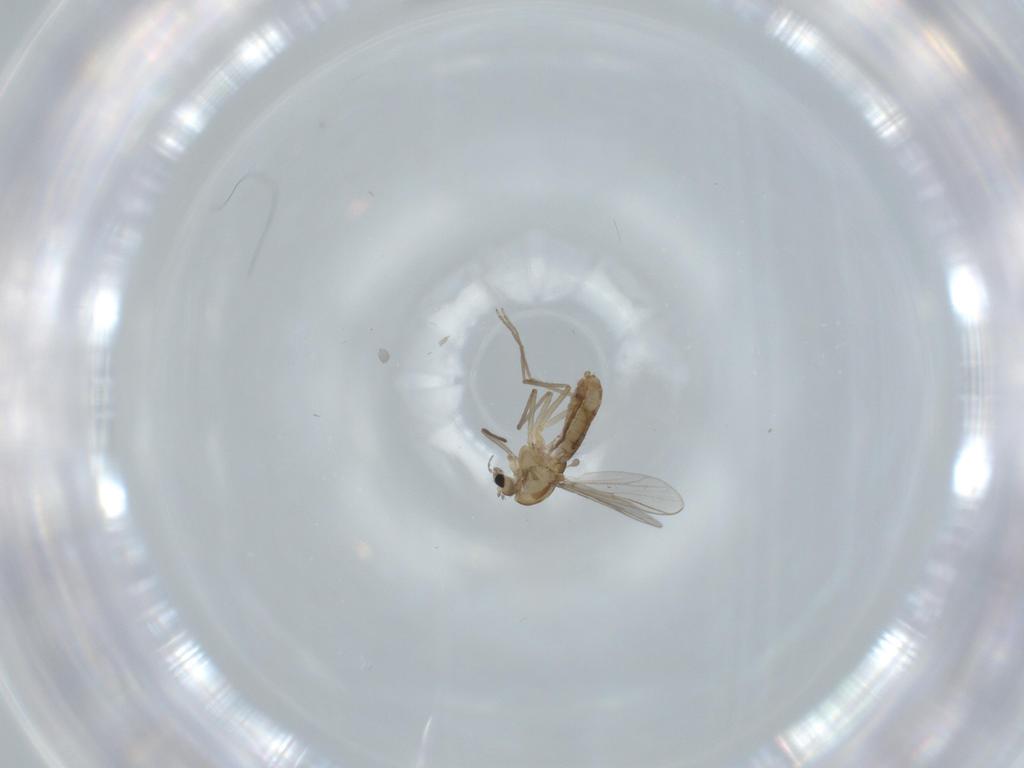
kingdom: Animalia
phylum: Arthropoda
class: Insecta
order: Diptera
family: Chironomidae
